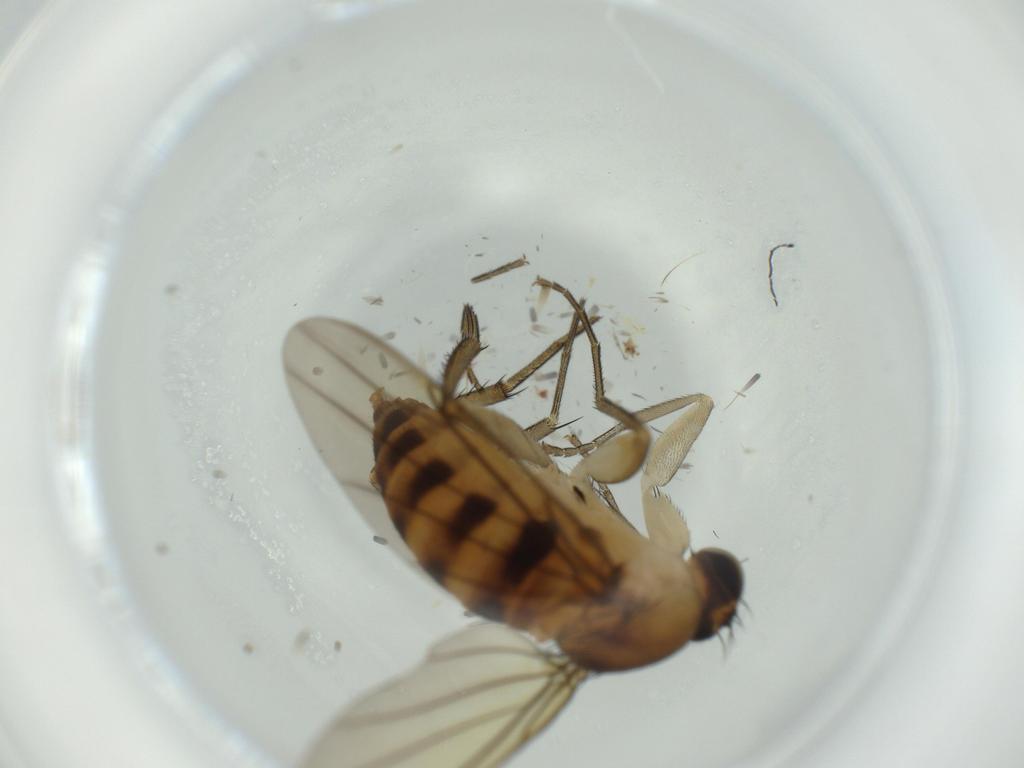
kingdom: Animalia
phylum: Arthropoda
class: Insecta
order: Diptera
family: Phoridae
